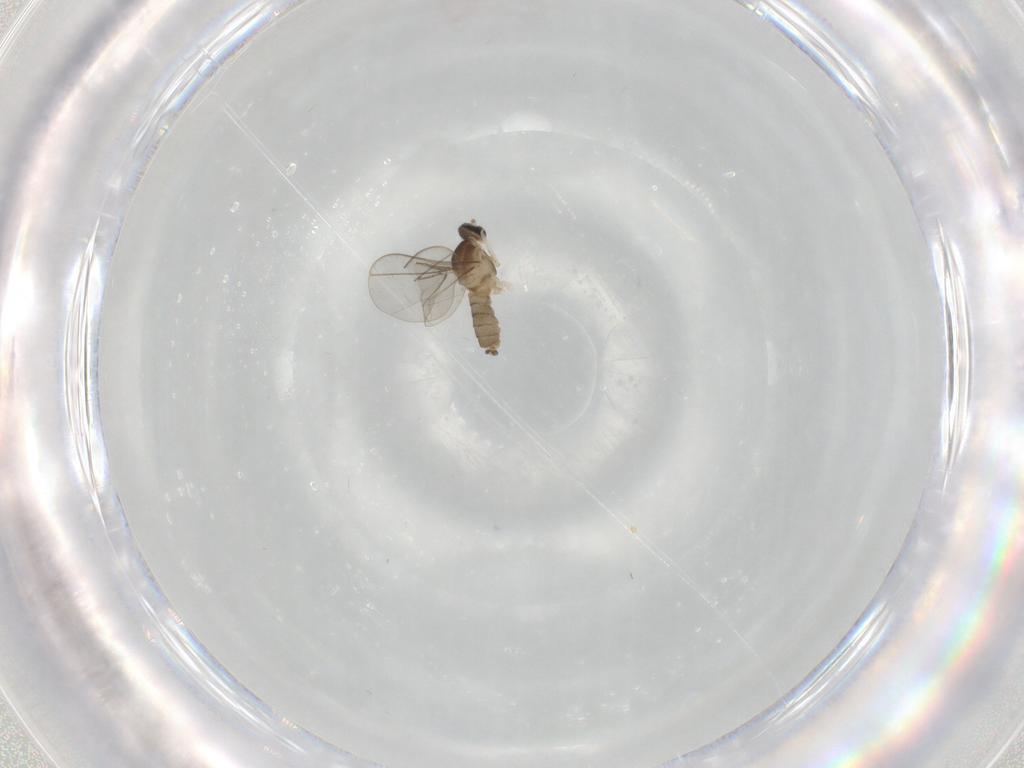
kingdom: Animalia
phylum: Arthropoda
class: Insecta
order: Diptera
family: Cecidomyiidae
